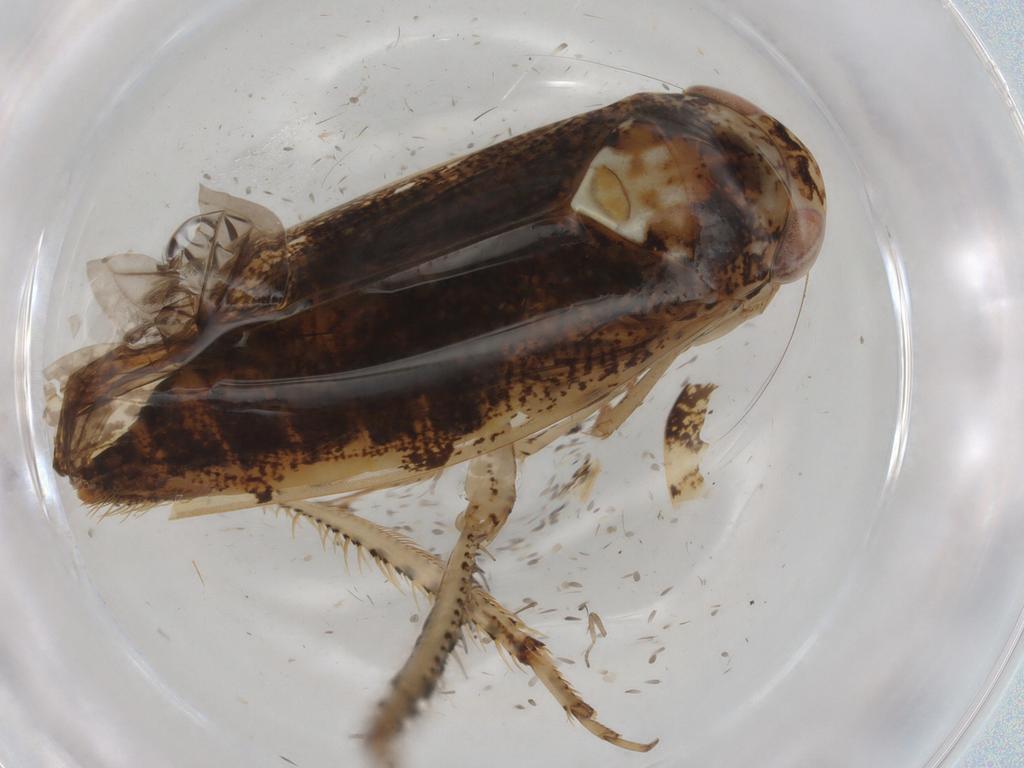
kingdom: Animalia
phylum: Arthropoda
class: Insecta
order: Hemiptera
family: Cicadellidae
